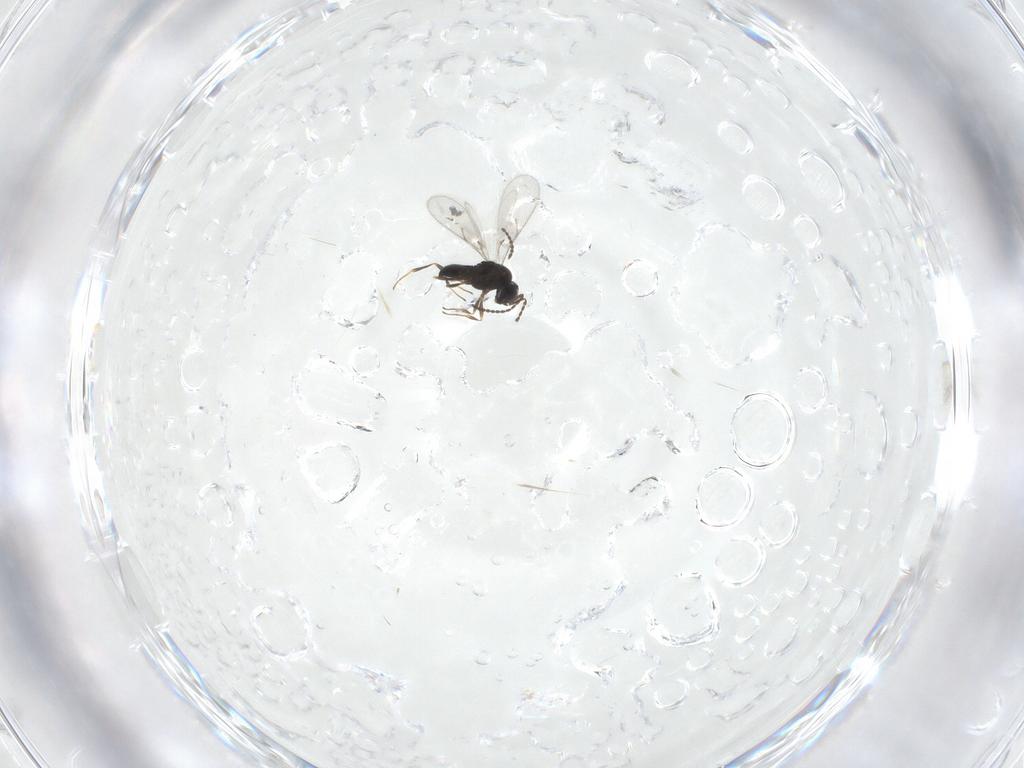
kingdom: Animalia
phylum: Arthropoda
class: Insecta
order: Hymenoptera
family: Scelionidae
